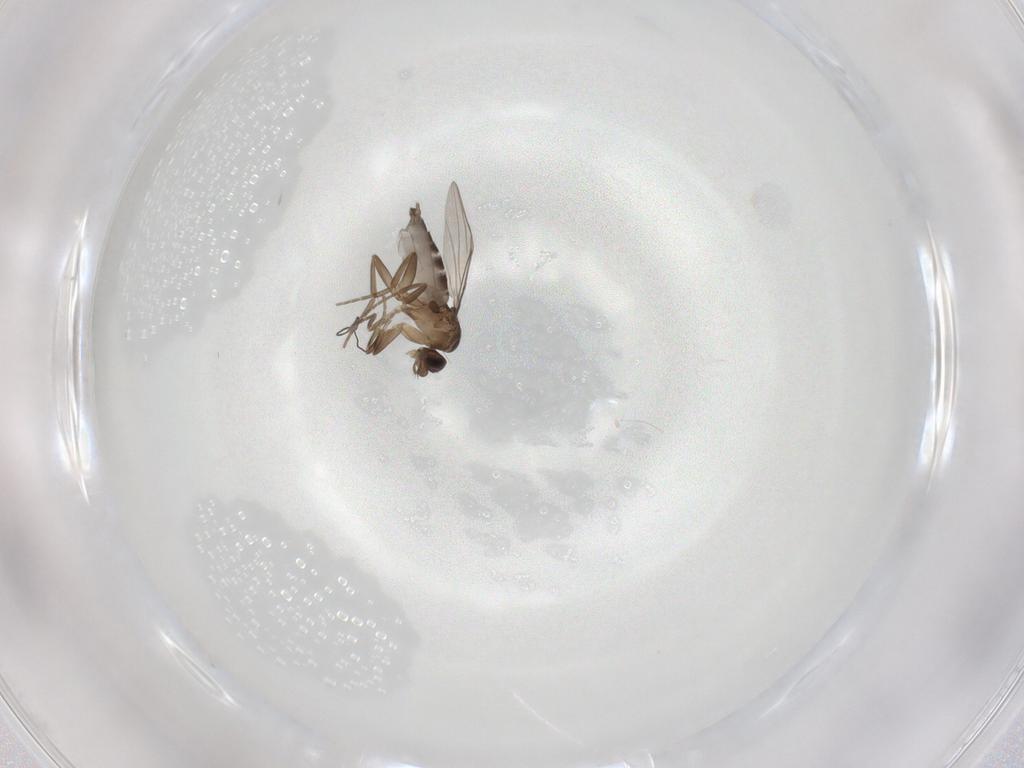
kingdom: Animalia
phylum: Arthropoda
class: Insecta
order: Diptera
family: Phoridae
